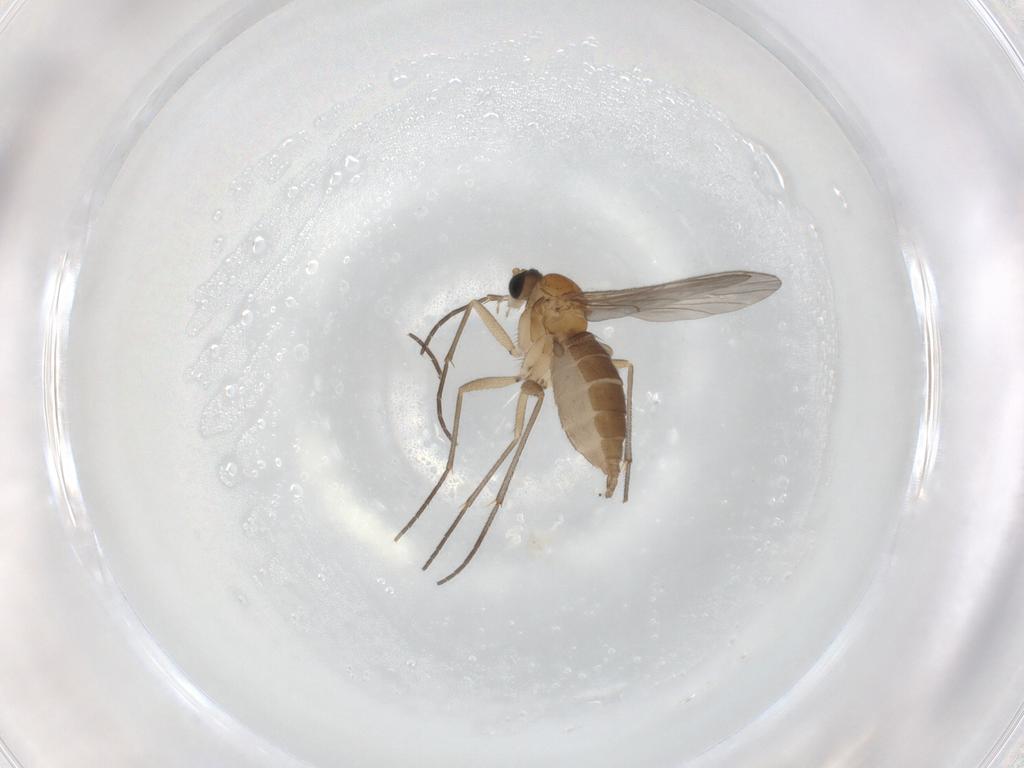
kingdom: Animalia
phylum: Arthropoda
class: Insecta
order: Diptera
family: Sciaridae
